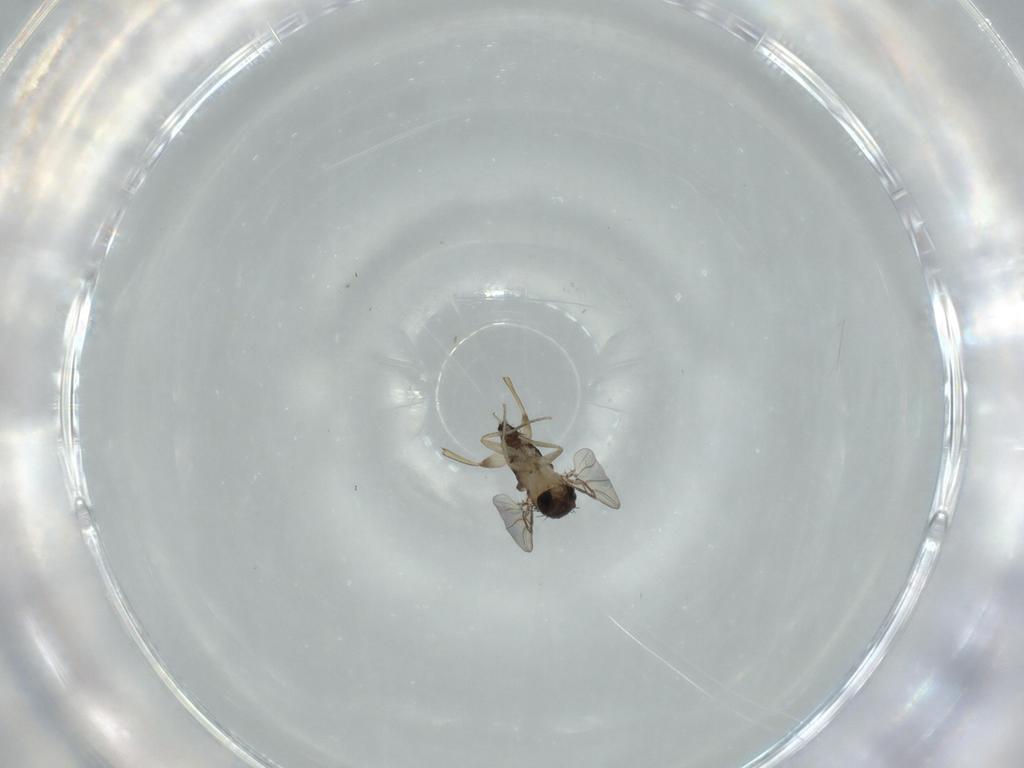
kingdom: Animalia
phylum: Arthropoda
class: Insecta
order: Diptera
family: Phoridae
